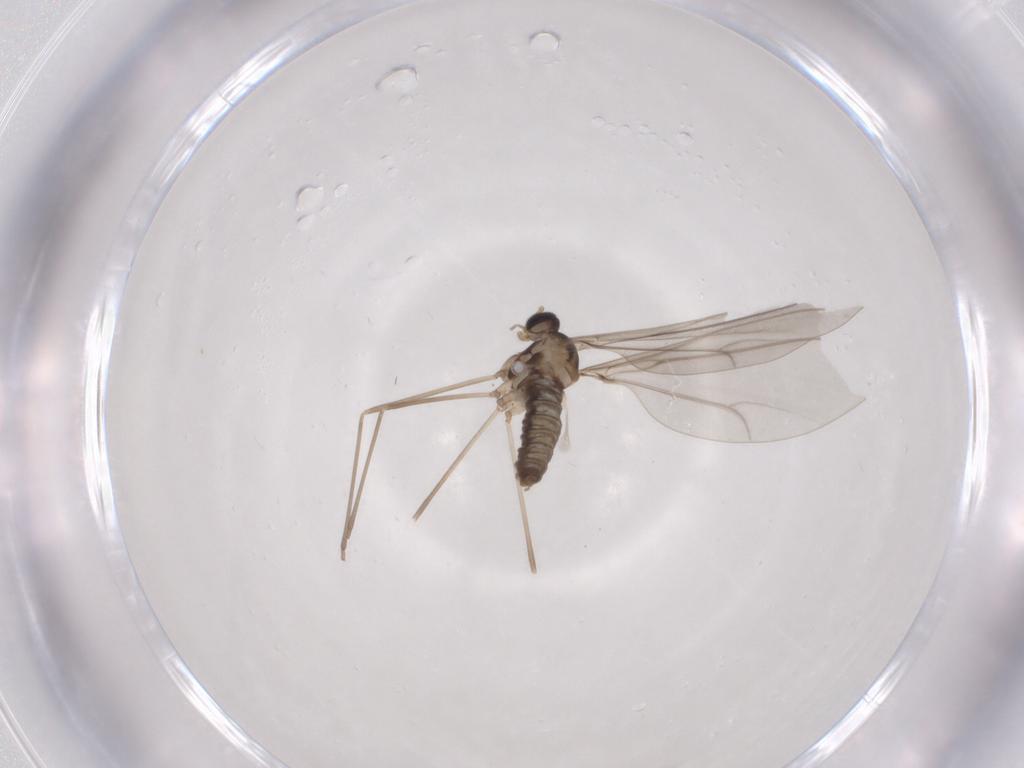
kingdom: Animalia
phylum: Arthropoda
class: Insecta
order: Diptera
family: Cecidomyiidae
